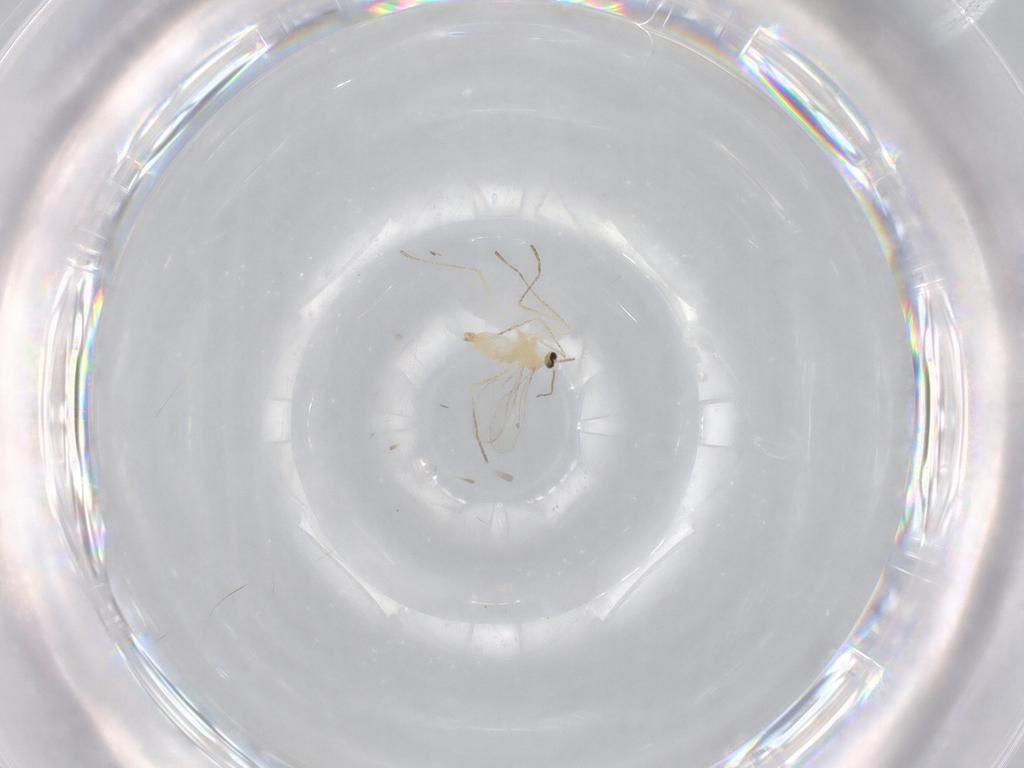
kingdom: Animalia
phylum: Arthropoda
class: Insecta
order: Diptera
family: Cecidomyiidae
